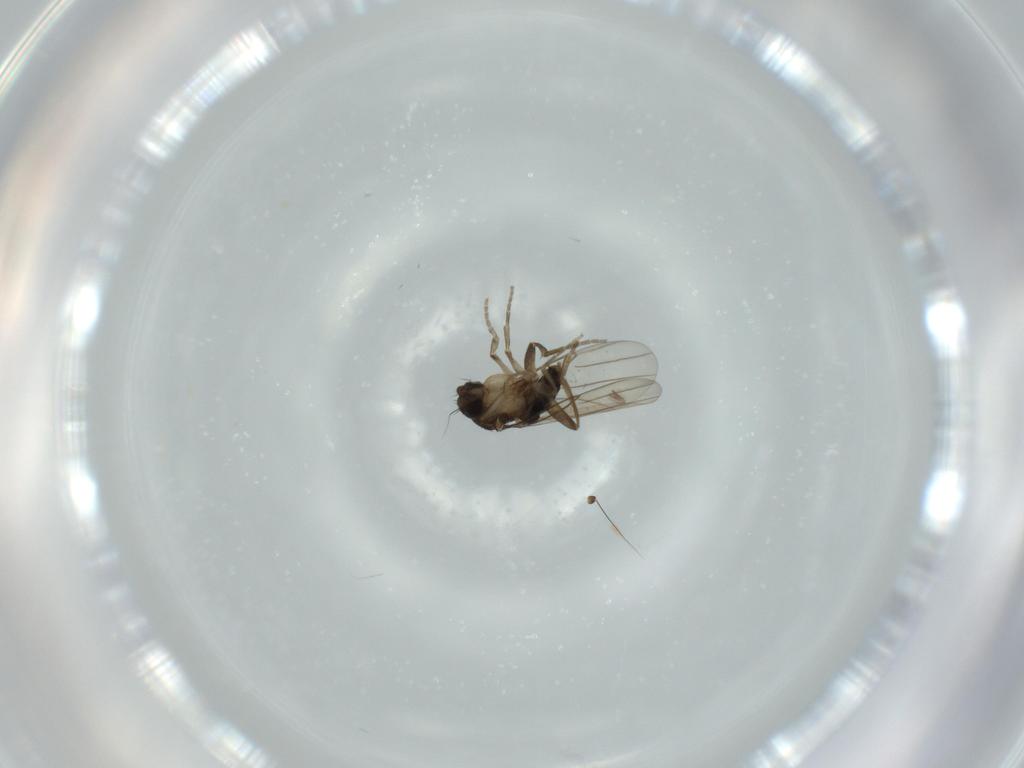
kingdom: Animalia
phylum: Arthropoda
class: Insecta
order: Diptera
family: Phoridae
